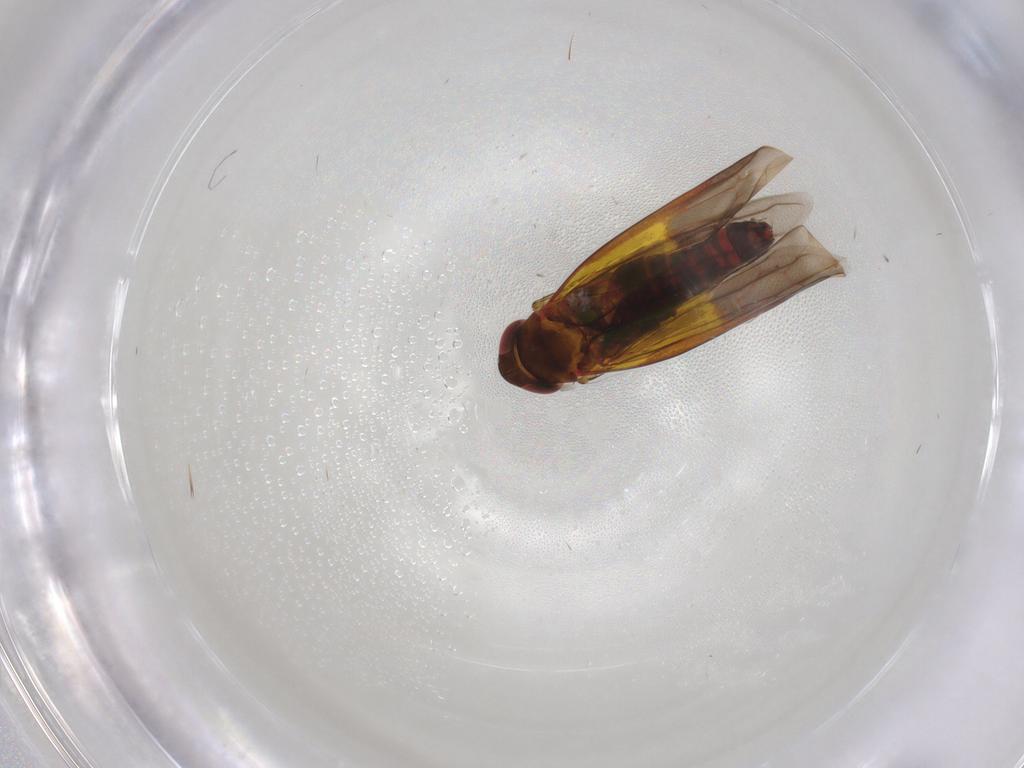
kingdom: Animalia
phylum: Arthropoda
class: Insecta
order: Hemiptera
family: Cicadellidae
